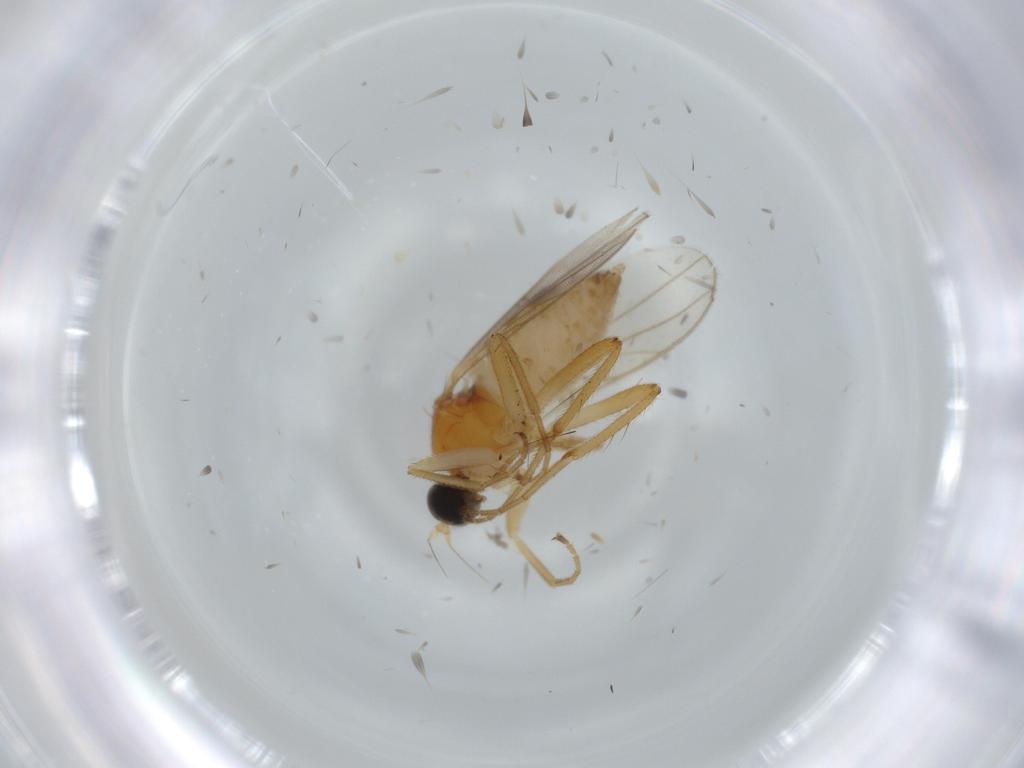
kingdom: Animalia
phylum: Arthropoda
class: Insecta
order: Diptera
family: Hybotidae
